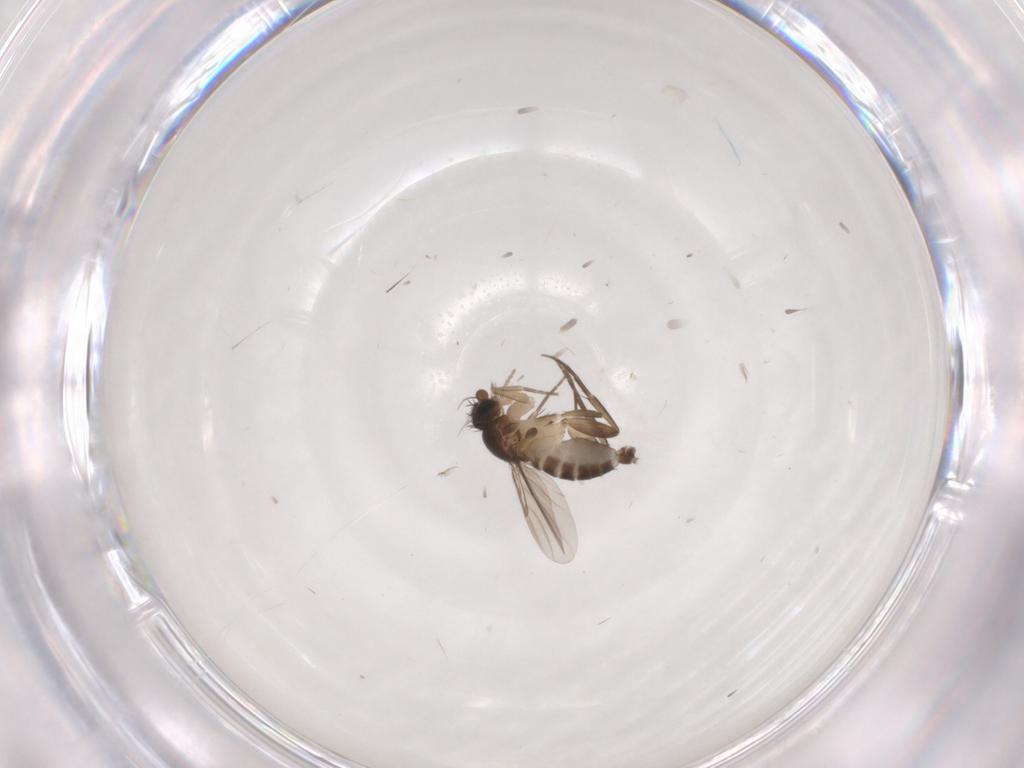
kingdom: Animalia
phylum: Arthropoda
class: Insecta
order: Diptera
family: Phoridae
